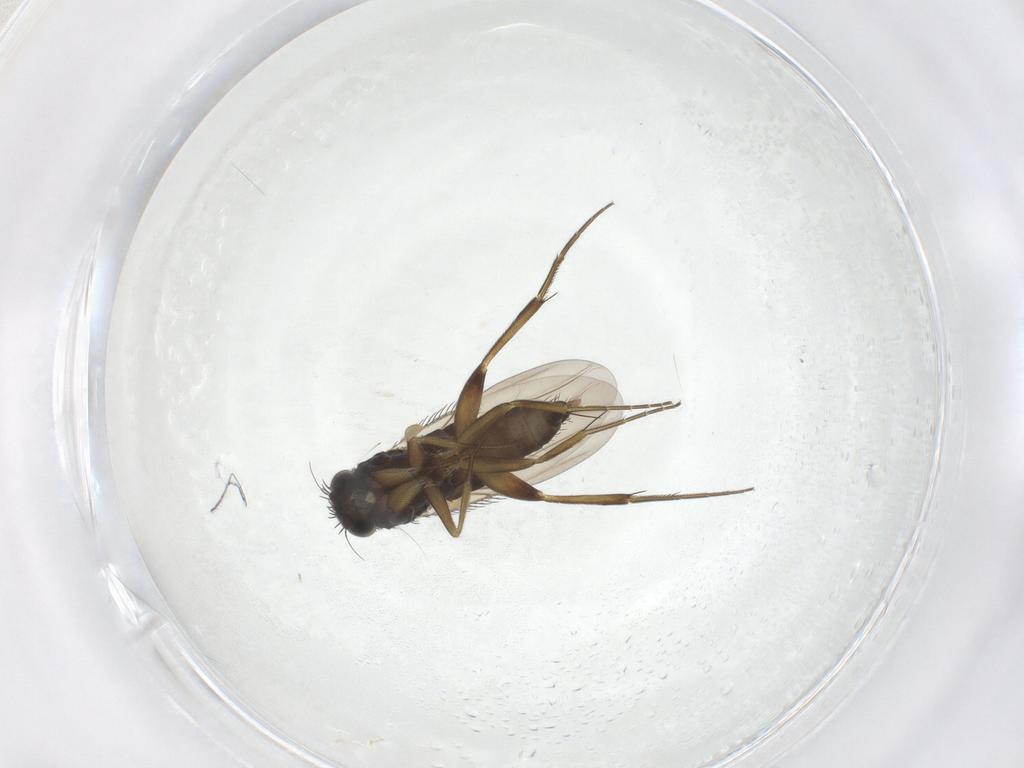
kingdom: Animalia
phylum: Arthropoda
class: Insecta
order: Diptera
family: Phoridae
